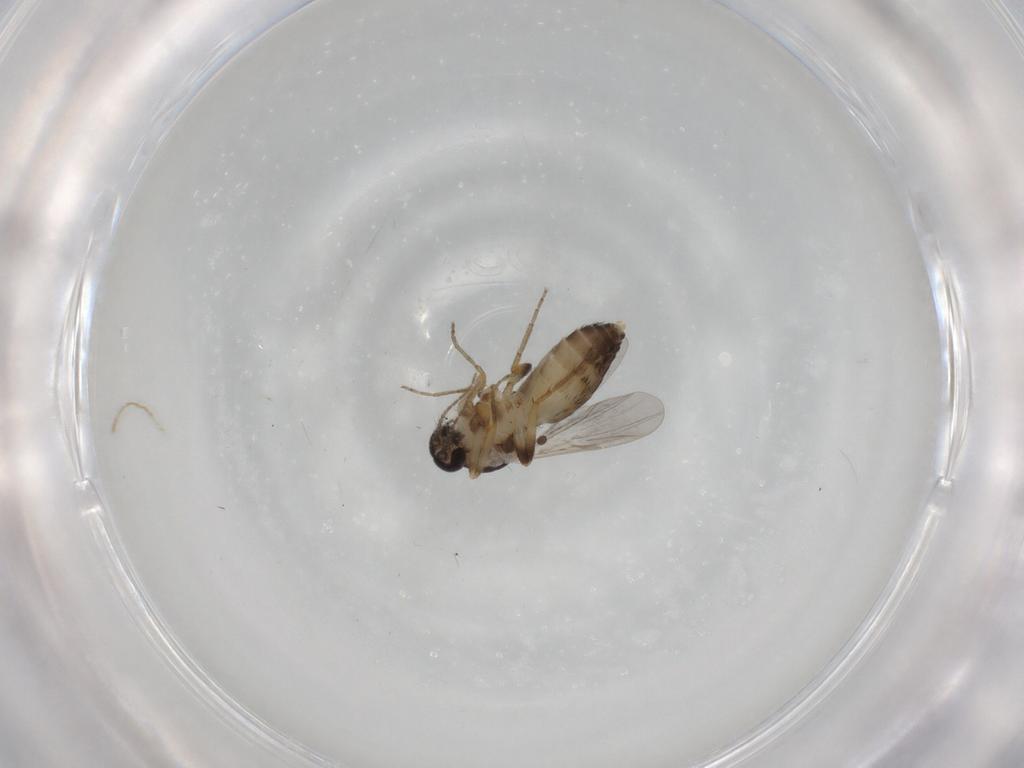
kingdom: Animalia
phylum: Arthropoda
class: Insecta
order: Diptera
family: Ceratopogonidae
